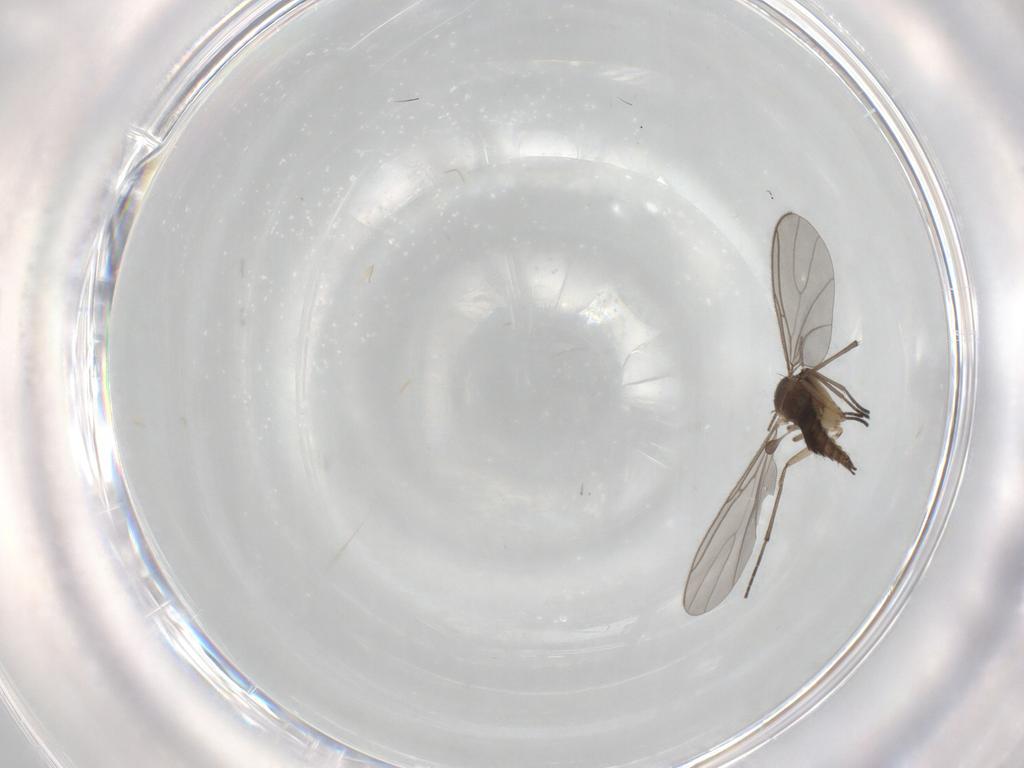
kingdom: Animalia
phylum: Arthropoda
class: Insecta
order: Diptera
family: Sciaridae
